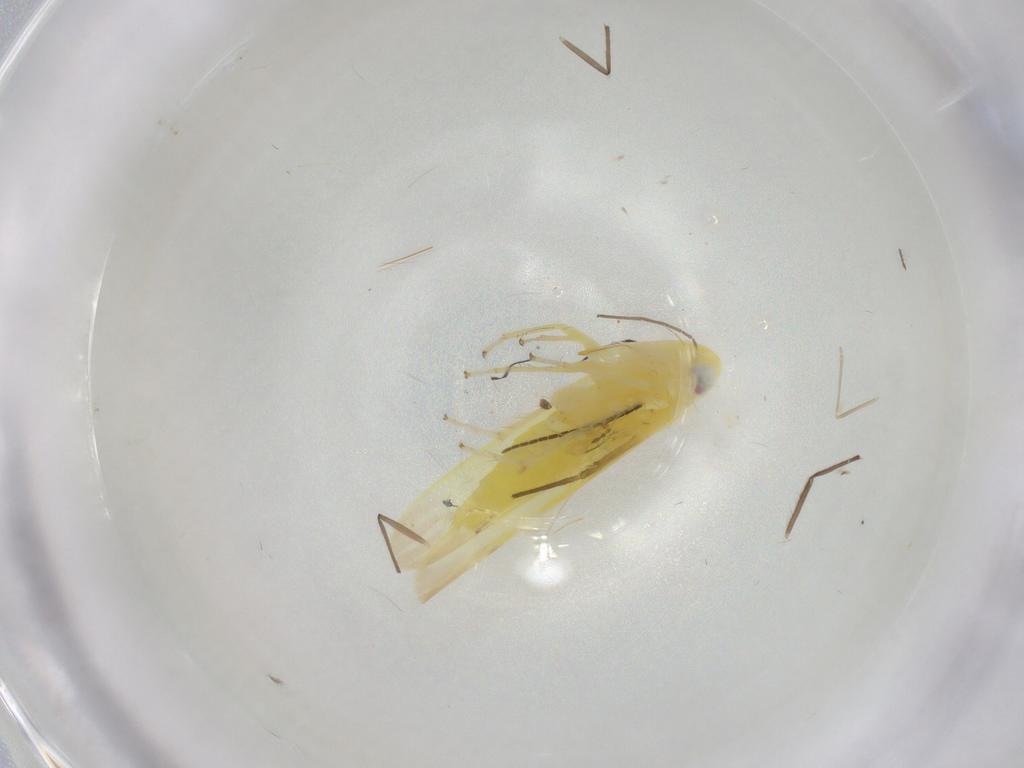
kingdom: Animalia
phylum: Arthropoda
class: Insecta
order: Hemiptera
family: Cicadellidae
